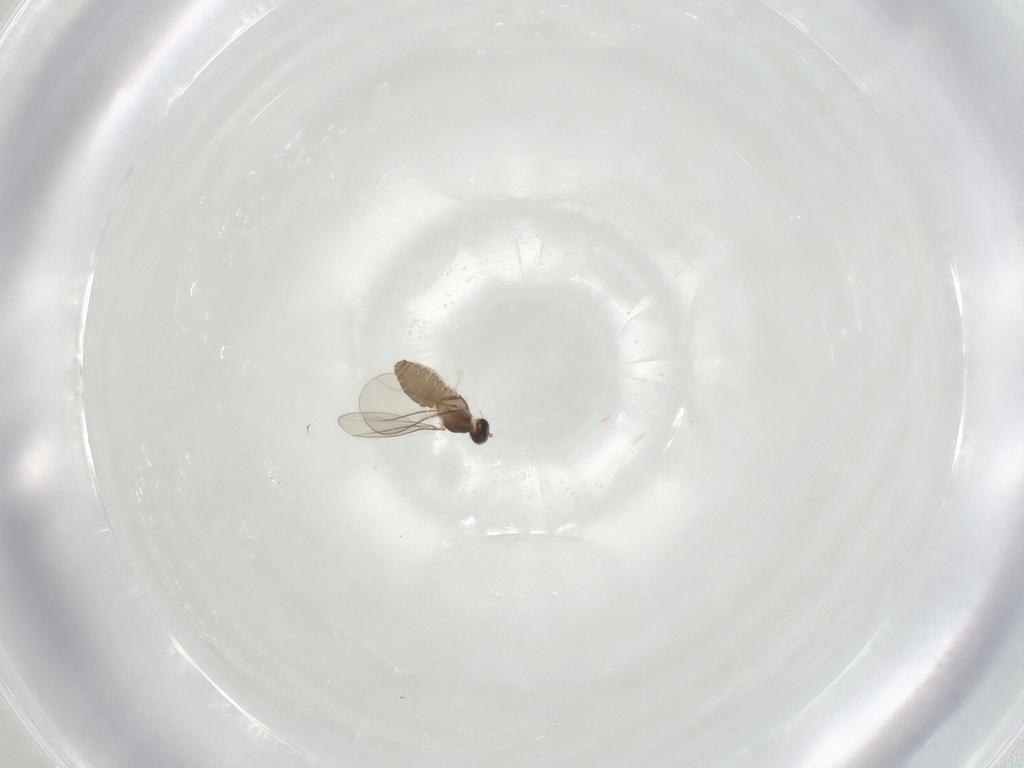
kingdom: Animalia
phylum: Arthropoda
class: Insecta
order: Diptera
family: Cecidomyiidae
